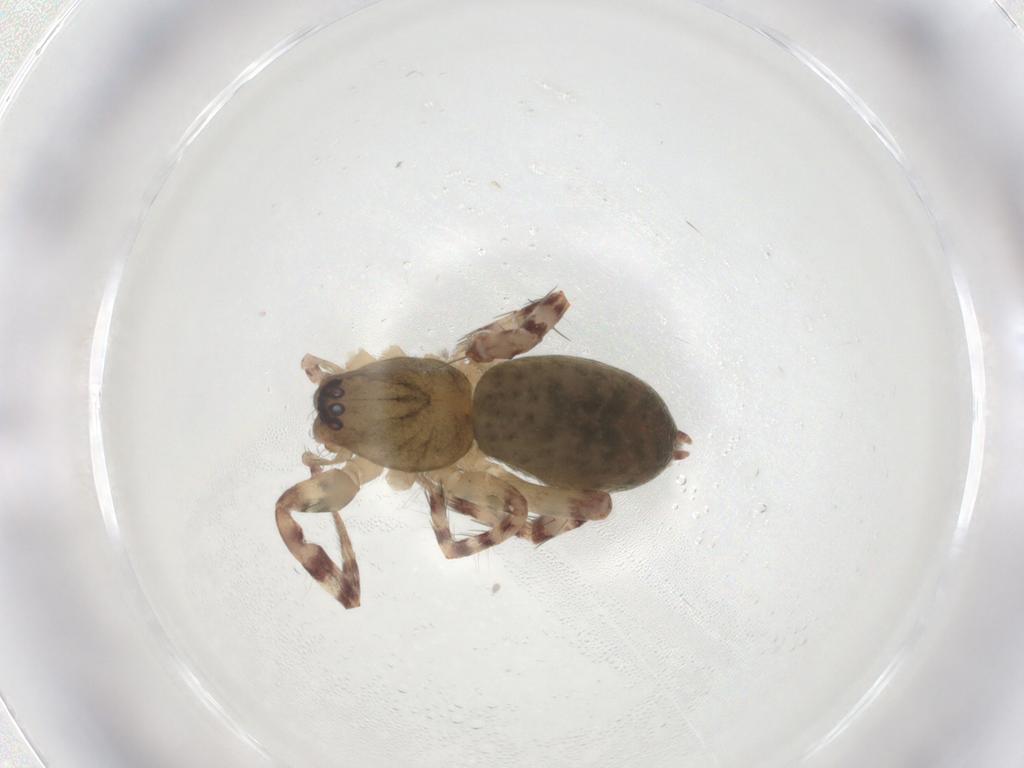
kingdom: Animalia
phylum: Arthropoda
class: Arachnida
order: Araneae
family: Anyphaenidae
